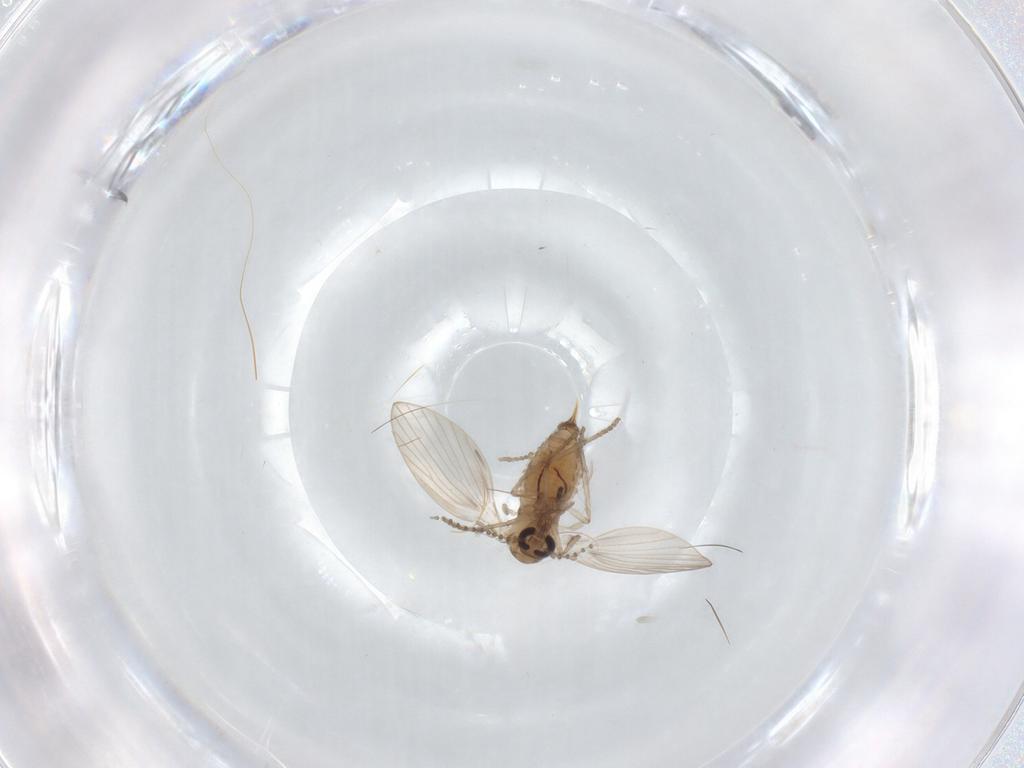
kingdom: Animalia
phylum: Arthropoda
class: Insecta
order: Diptera
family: Psychodidae
